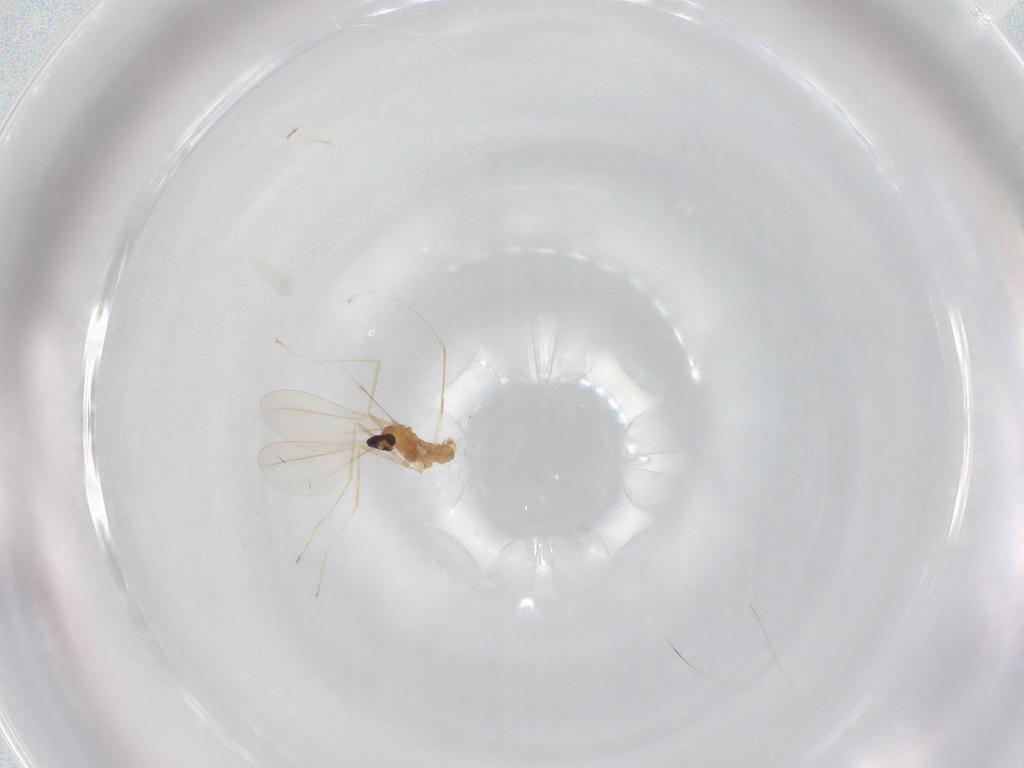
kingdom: Animalia
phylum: Arthropoda
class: Insecta
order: Diptera
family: Cecidomyiidae
